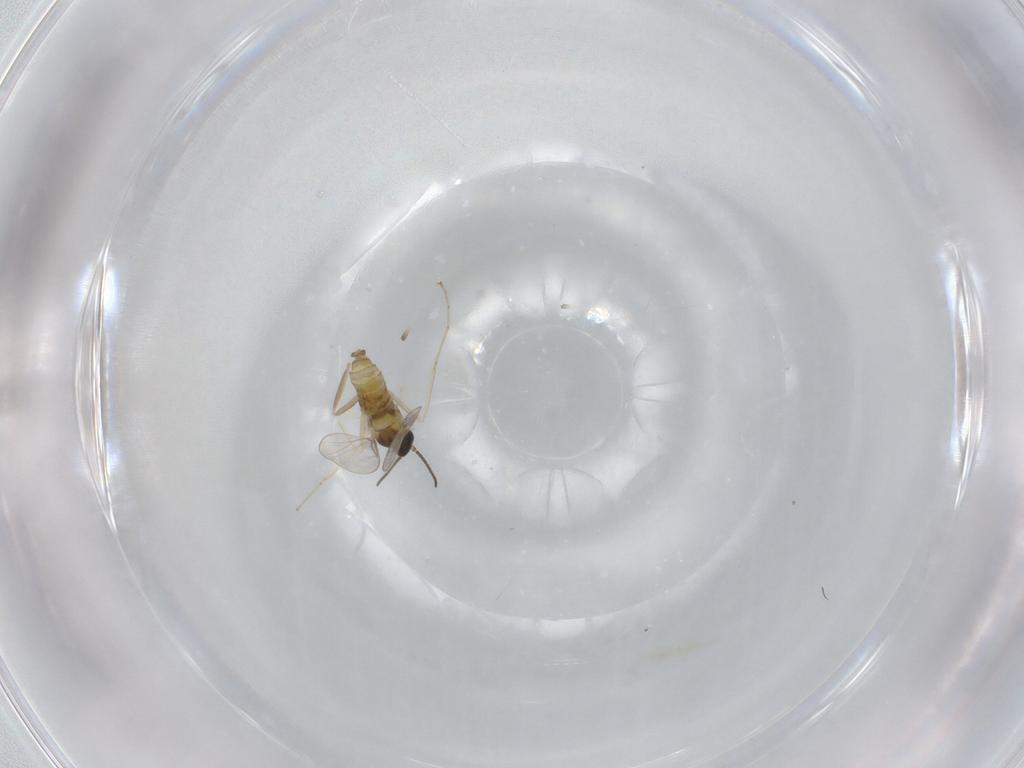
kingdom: Animalia
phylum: Arthropoda
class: Insecta
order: Diptera
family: Cecidomyiidae
